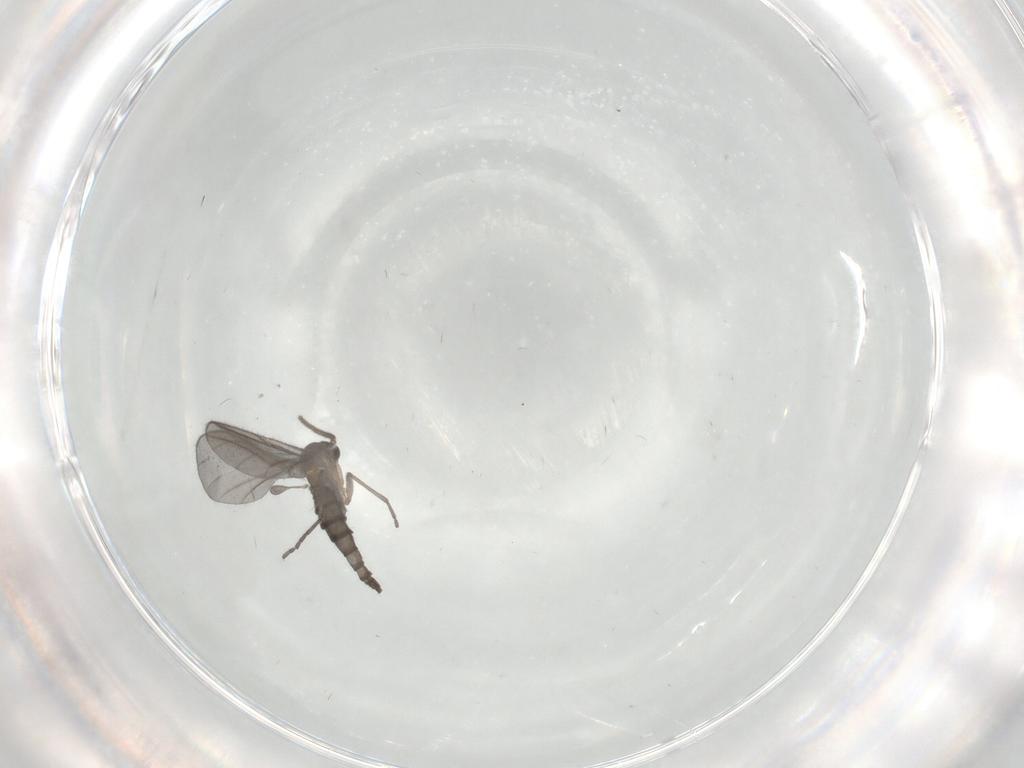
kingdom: Animalia
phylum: Arthropoda
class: Insecta
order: Diptera
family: Sciaridae
